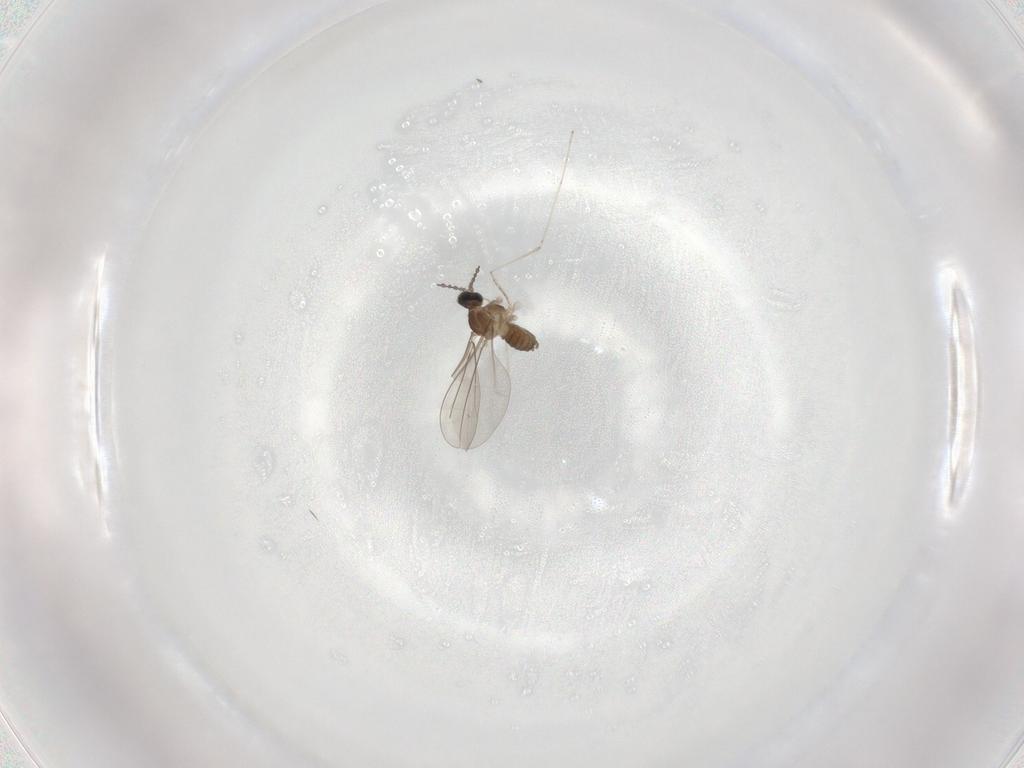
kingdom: Animalia
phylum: Arthropoda
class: Insecta
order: Diptera
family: Cecidomyiidae
